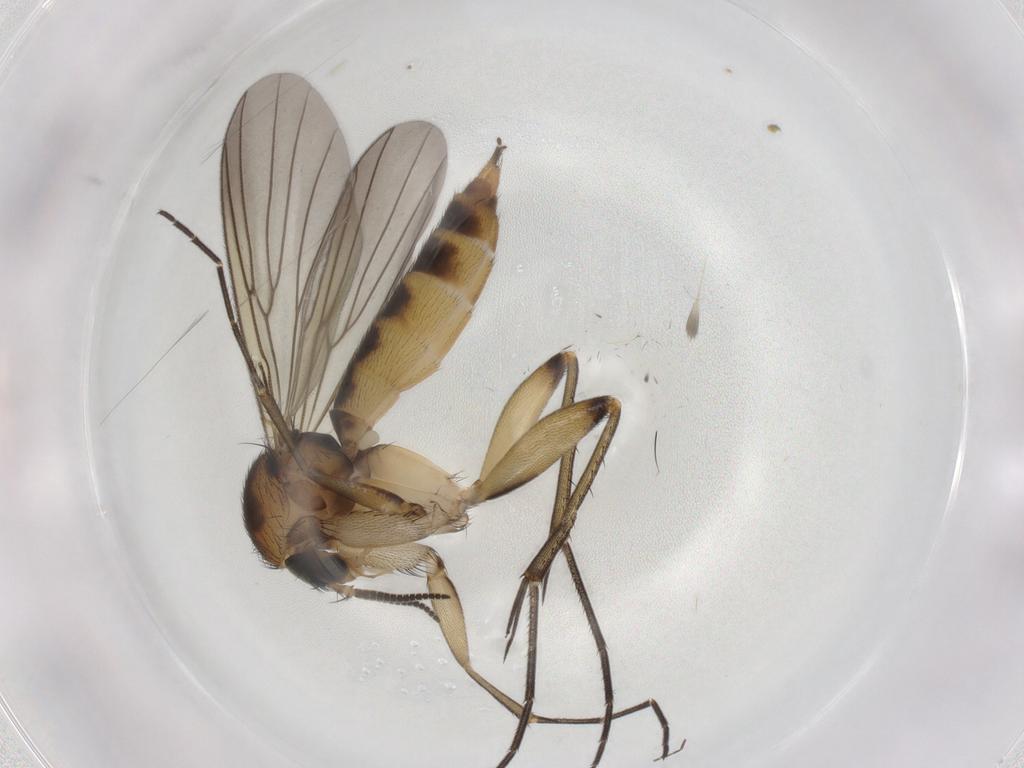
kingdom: Animalia
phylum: Arthropoda
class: Insecta
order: Diptera
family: Mycetophilidae
